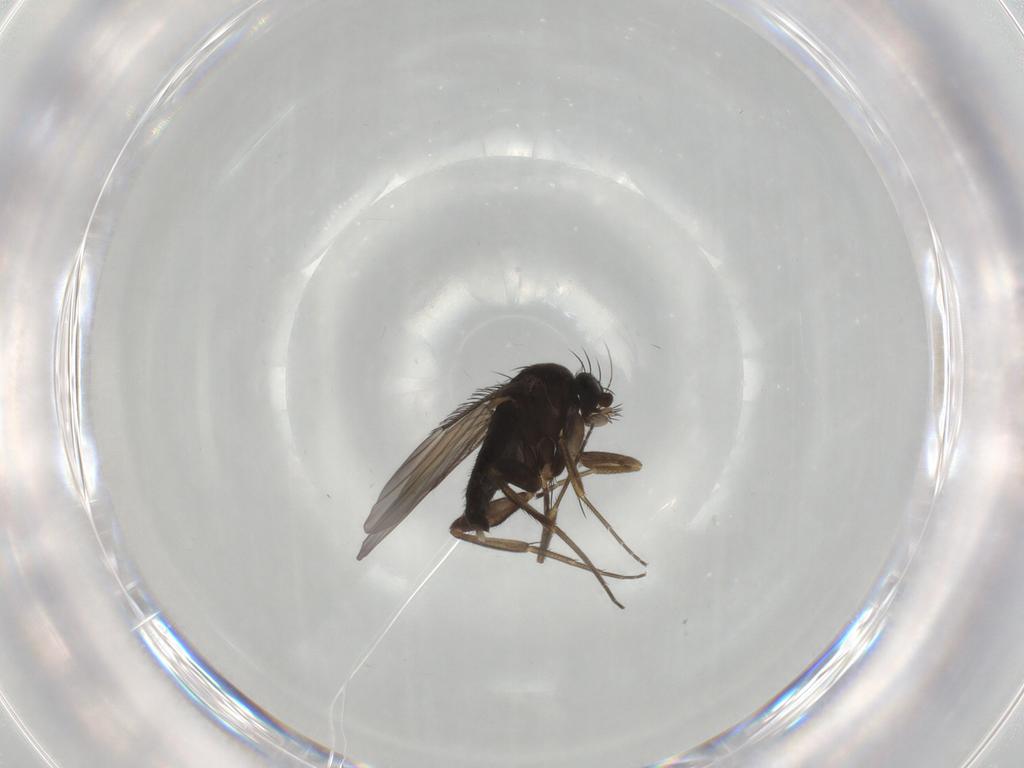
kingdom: Animalia
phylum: Arthropoda
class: Insecta
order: Diptera
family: Phoridae
